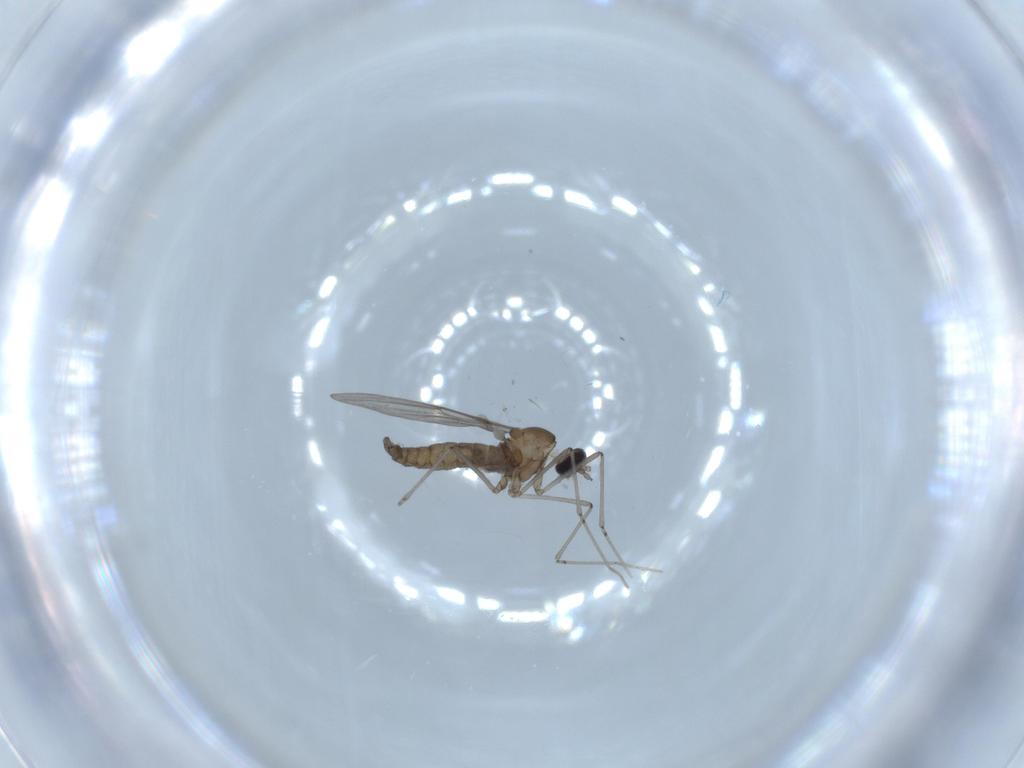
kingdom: Animalia
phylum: Arthropoda
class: Insecta
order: Diptera
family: Cecidomyiidae
